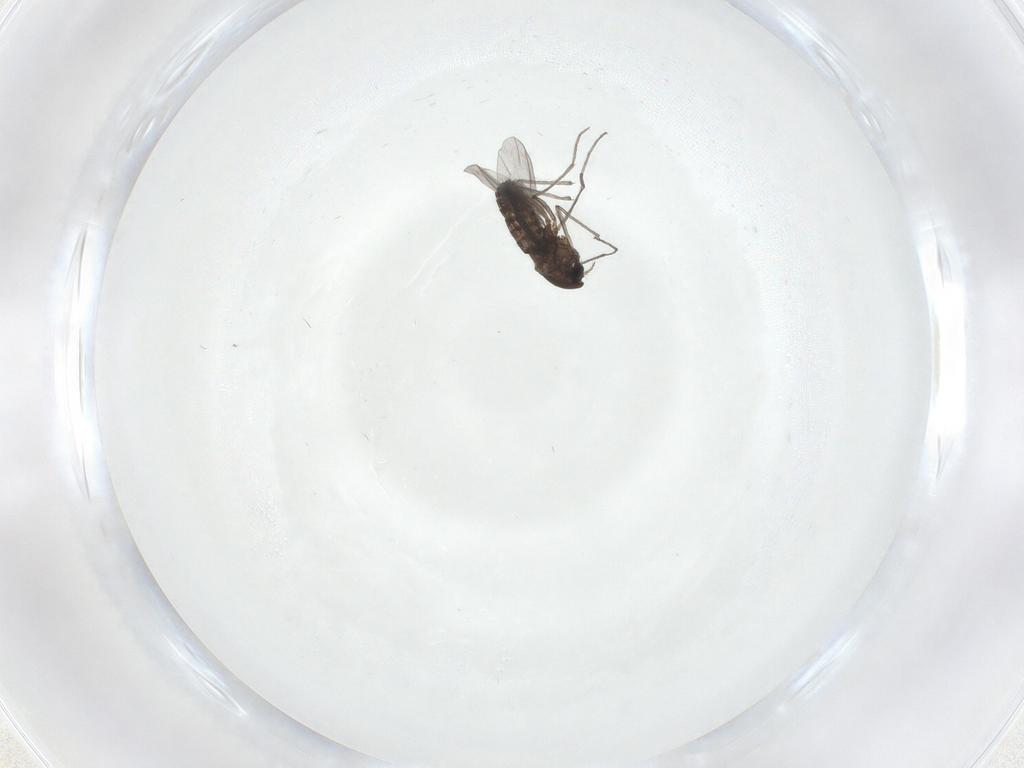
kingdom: Animalia
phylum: Arthropoda
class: Insecta
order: Diptera
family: Chironomidae
